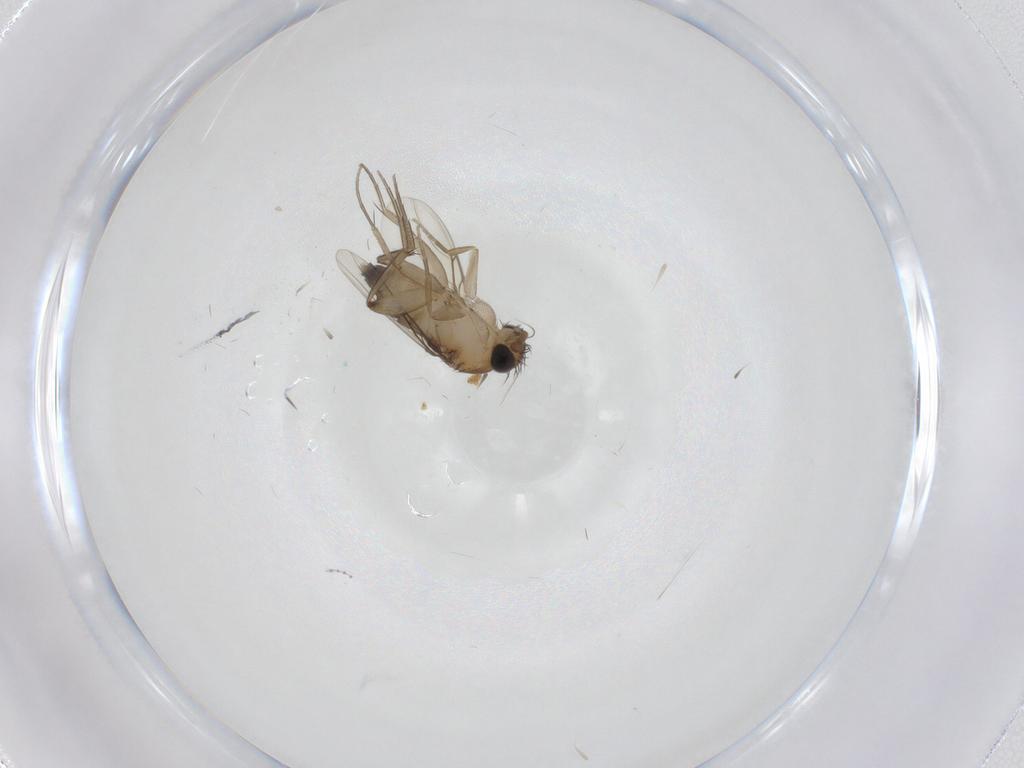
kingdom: Animalia
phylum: Arthropoda
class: Insecta
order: Diptera
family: Phoridae
